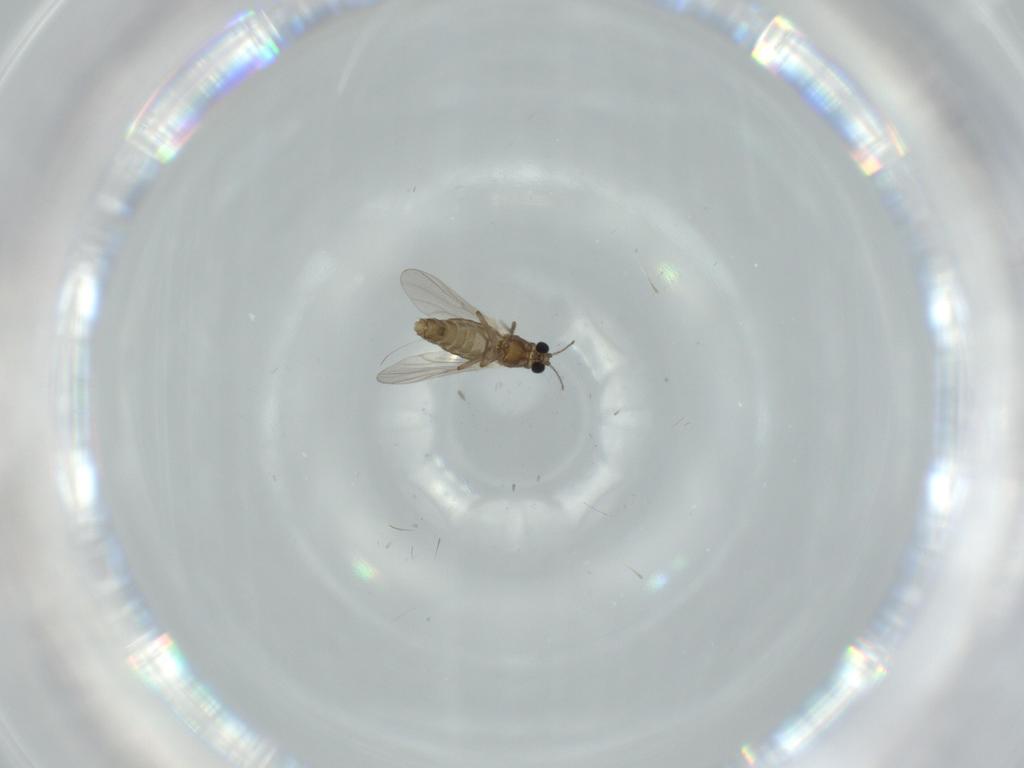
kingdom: Animalia
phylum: Arthropoda
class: Insecta
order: Diptera
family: Chironomidae
